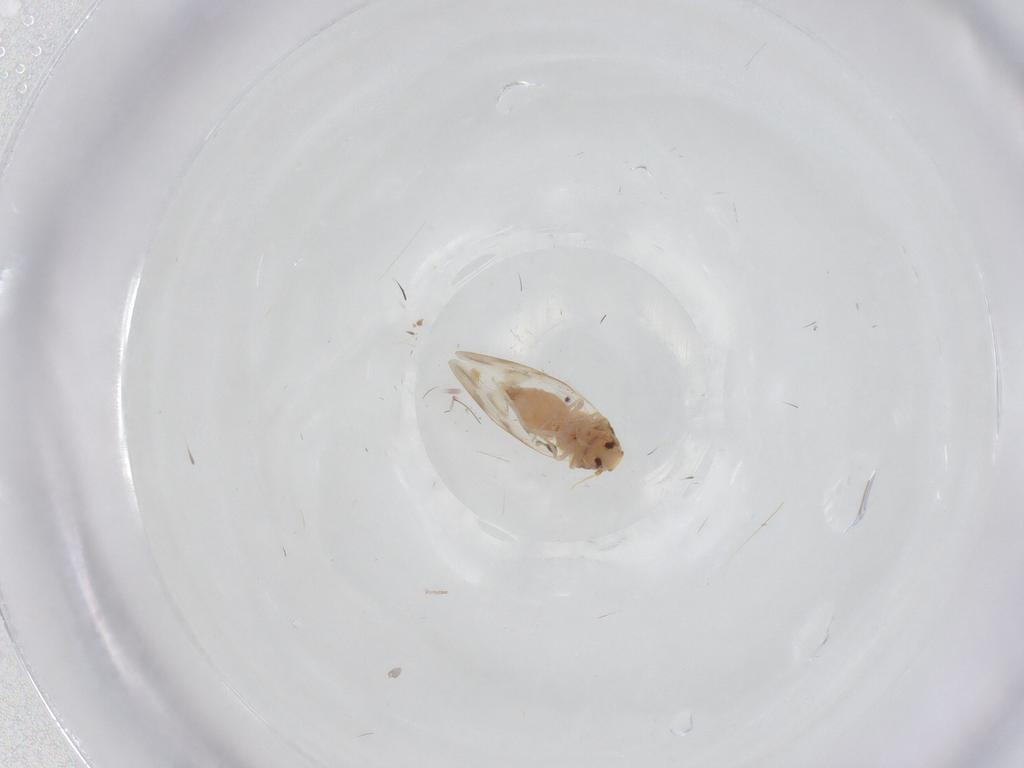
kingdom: Animalia
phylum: Arthropoda
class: Insecta
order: Hemiptera
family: Aleyrodidae
